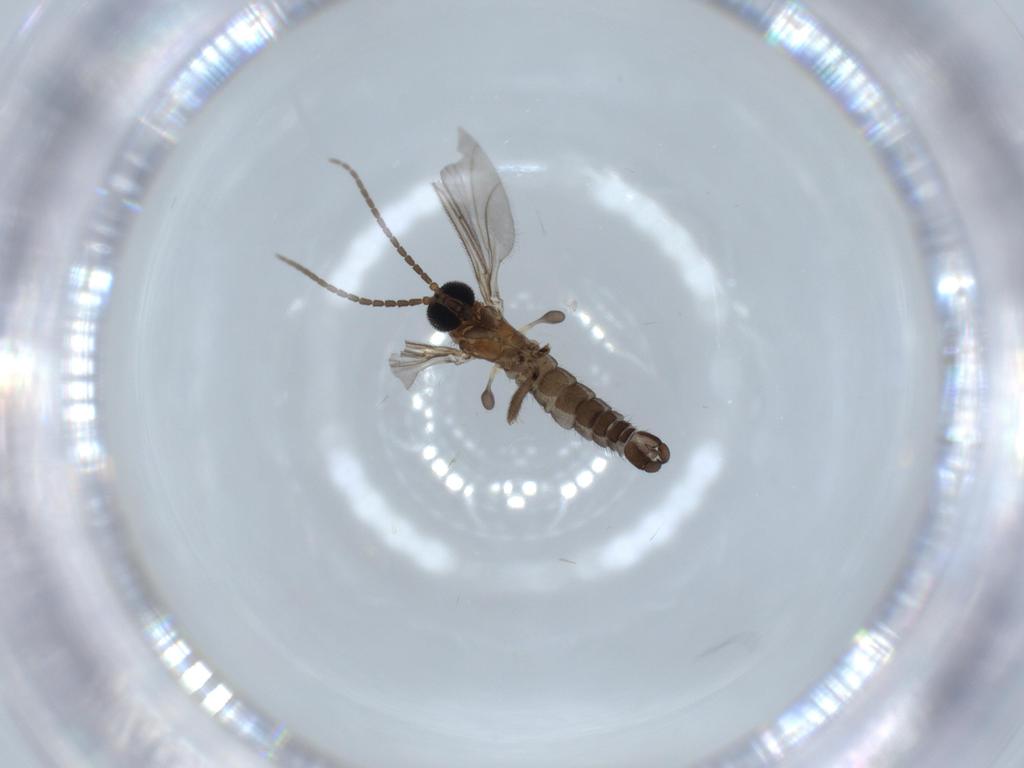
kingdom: Animalia
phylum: Arthropoda
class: Insecta
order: Diptera
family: Sciaridae
